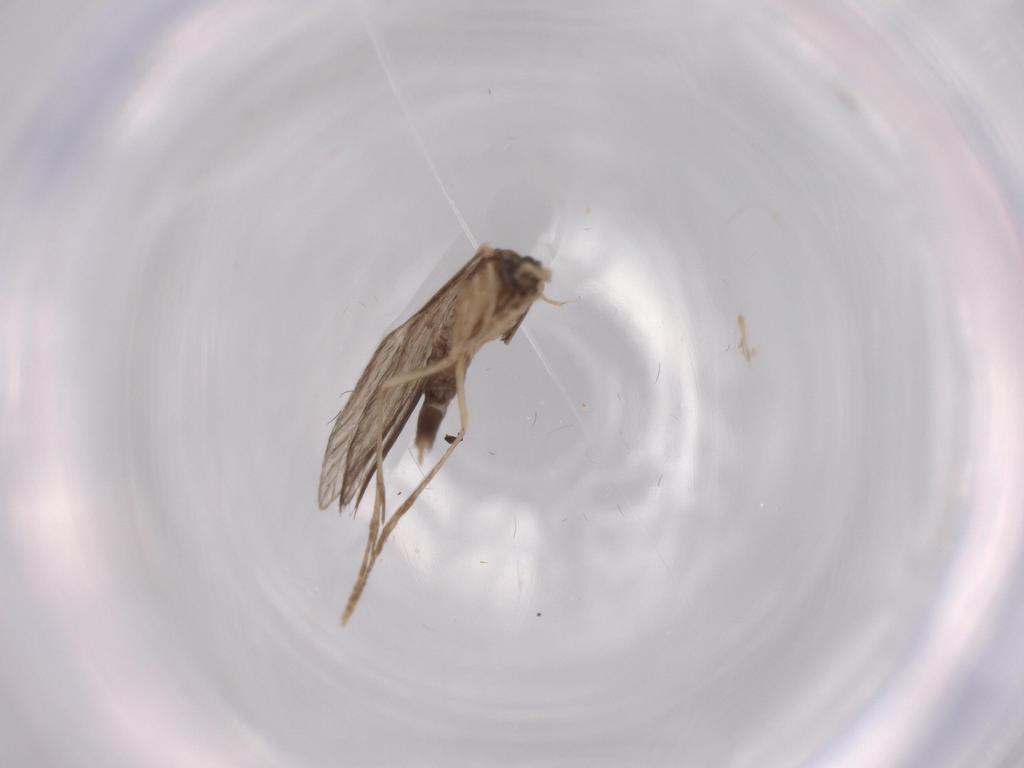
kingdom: Animalia
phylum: Arthropoda
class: Insecta
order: Trichoptera
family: Hydroptilidae
